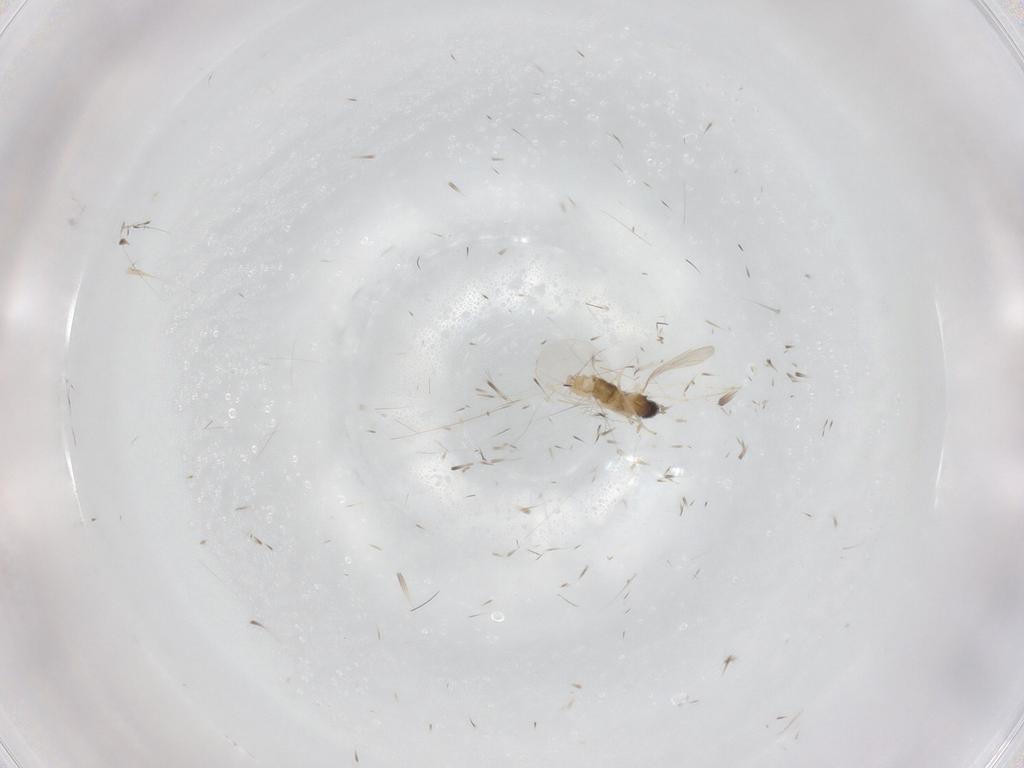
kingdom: Animalia
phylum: Arthropoda
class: Insecta
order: Diptera
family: Cecidomyiidae
